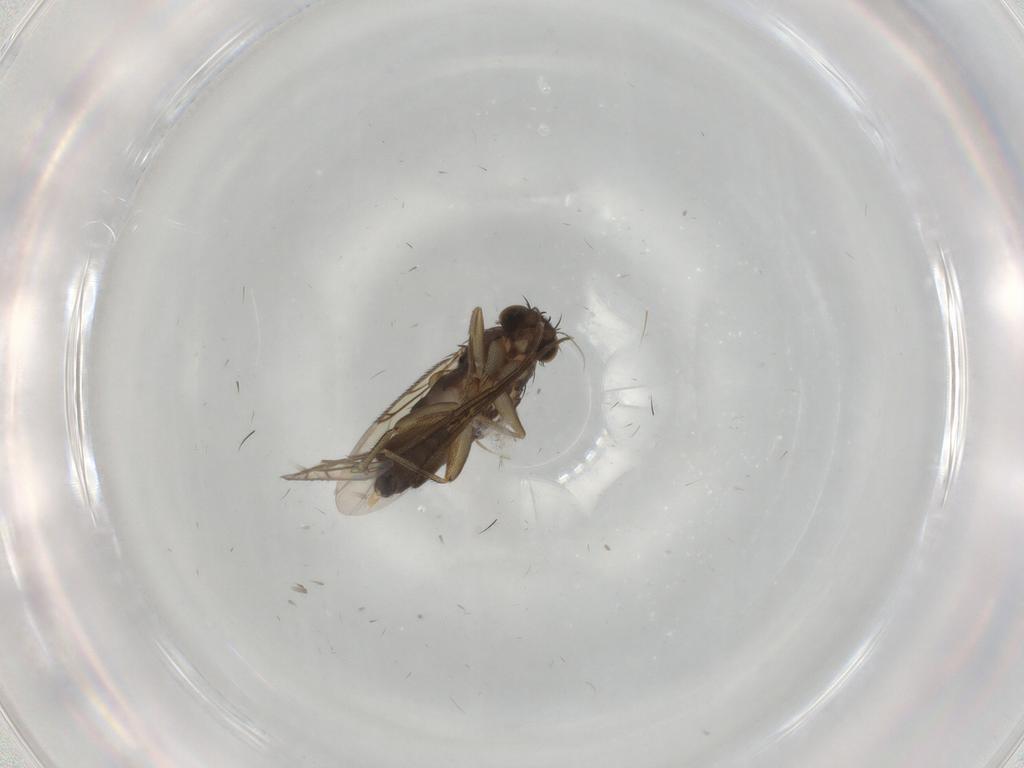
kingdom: Animalia
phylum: Arthropoda
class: Insecta
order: Diptera
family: Phoridae
